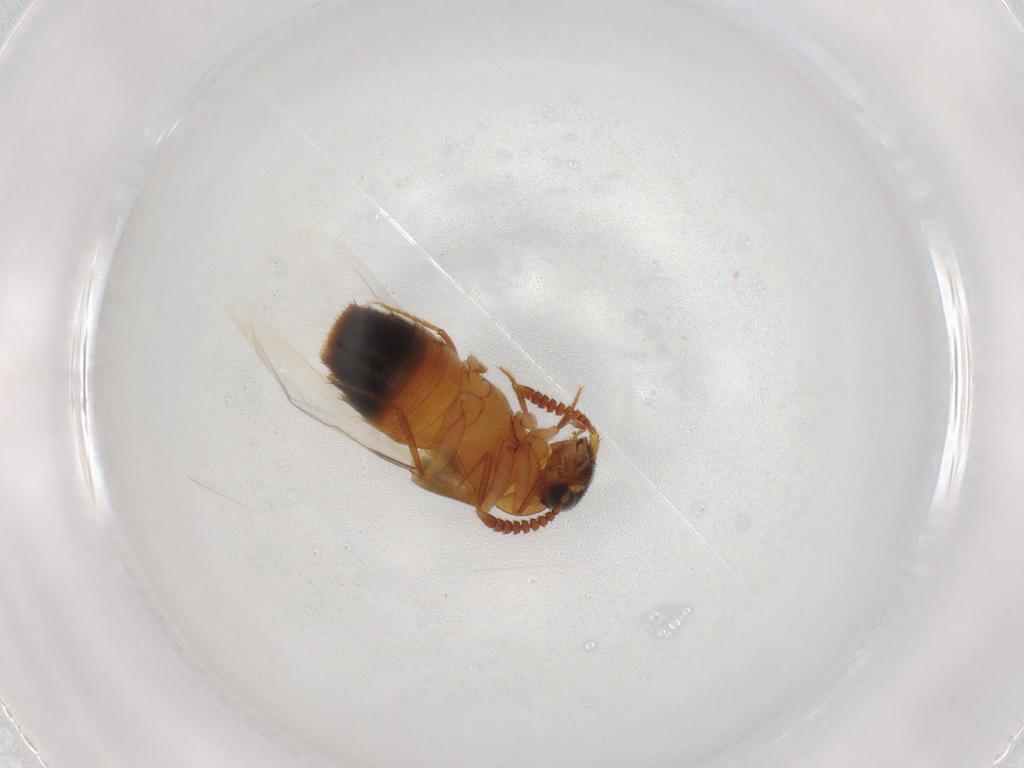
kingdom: Animalia
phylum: Arthropoda
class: Insecta
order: Coleoptera
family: Staphylinidae
